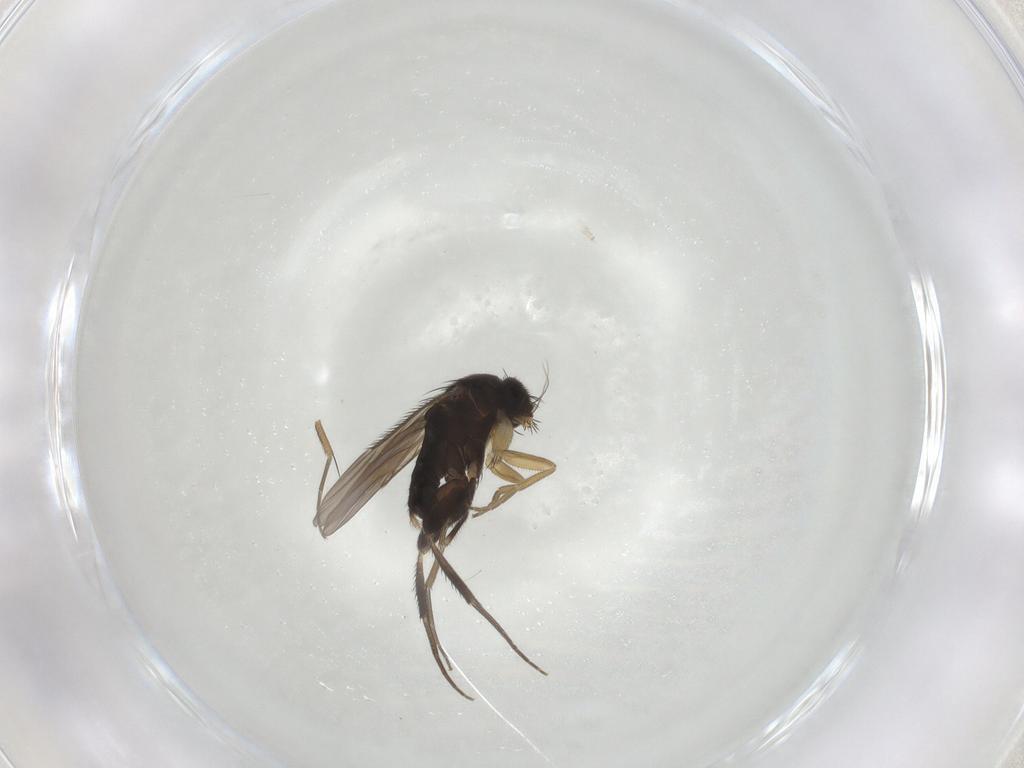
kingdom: Animalia
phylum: Arthropoda
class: Insecta
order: Diptera
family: Phoridae
